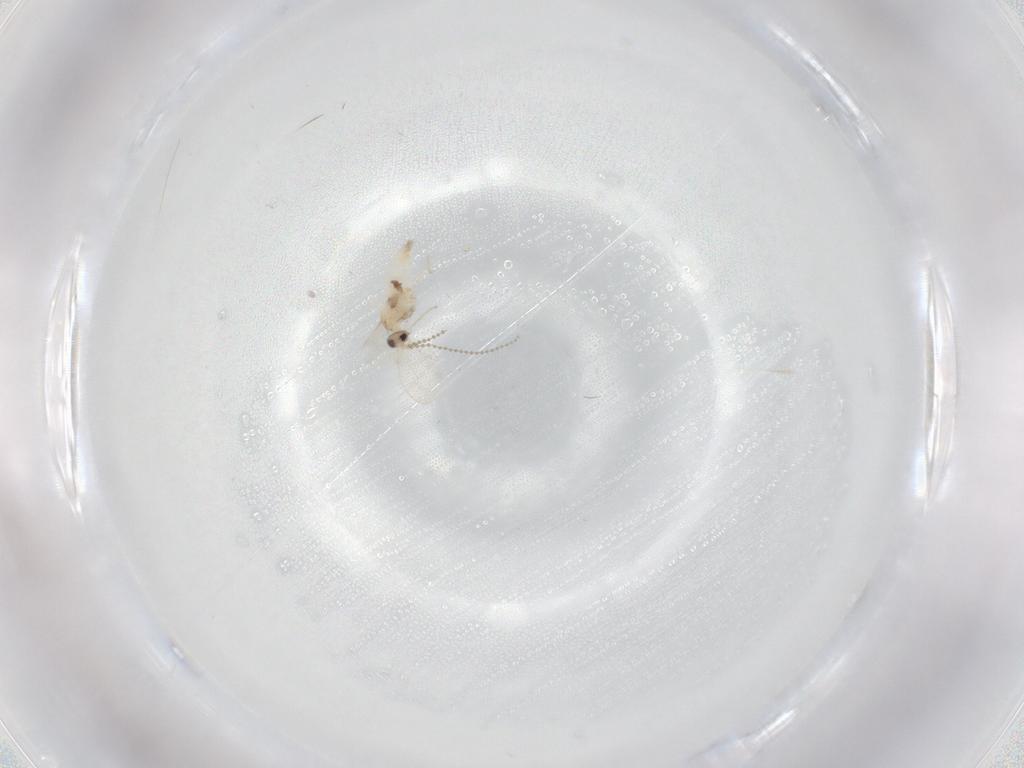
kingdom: Animalia
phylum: Arthropoda
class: Insecta
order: Diptera
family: Cecidomyiidae
